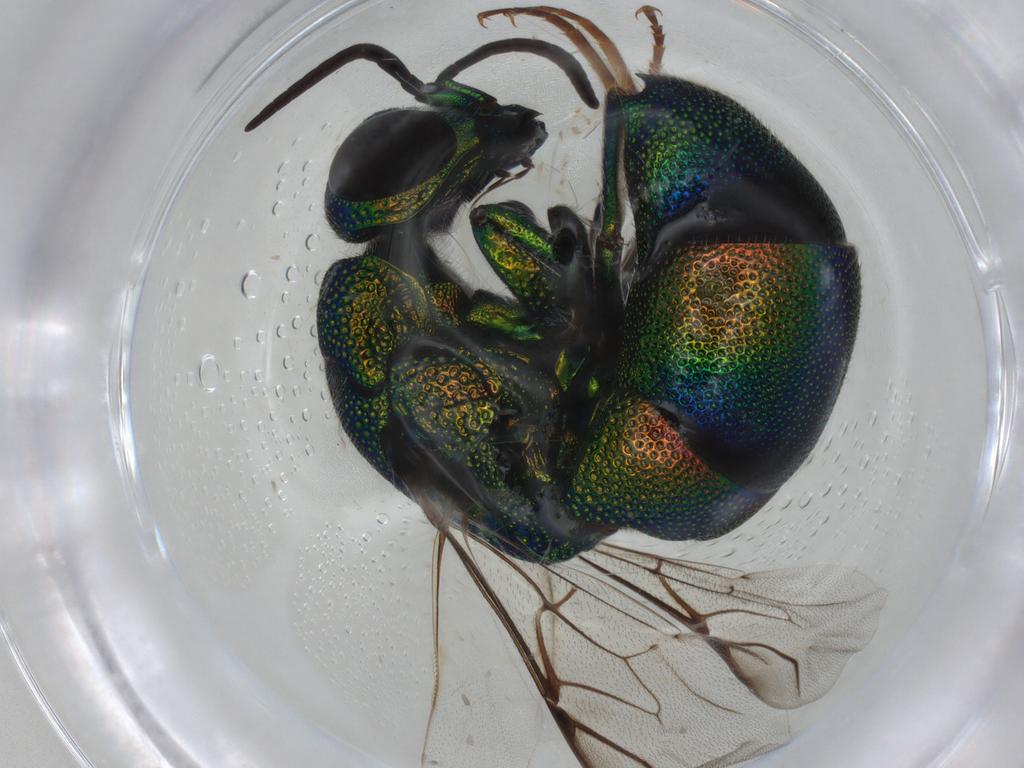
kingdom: Animalia
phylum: Arthropoda
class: Insecta
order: Hymenoptera
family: Chrysididae
